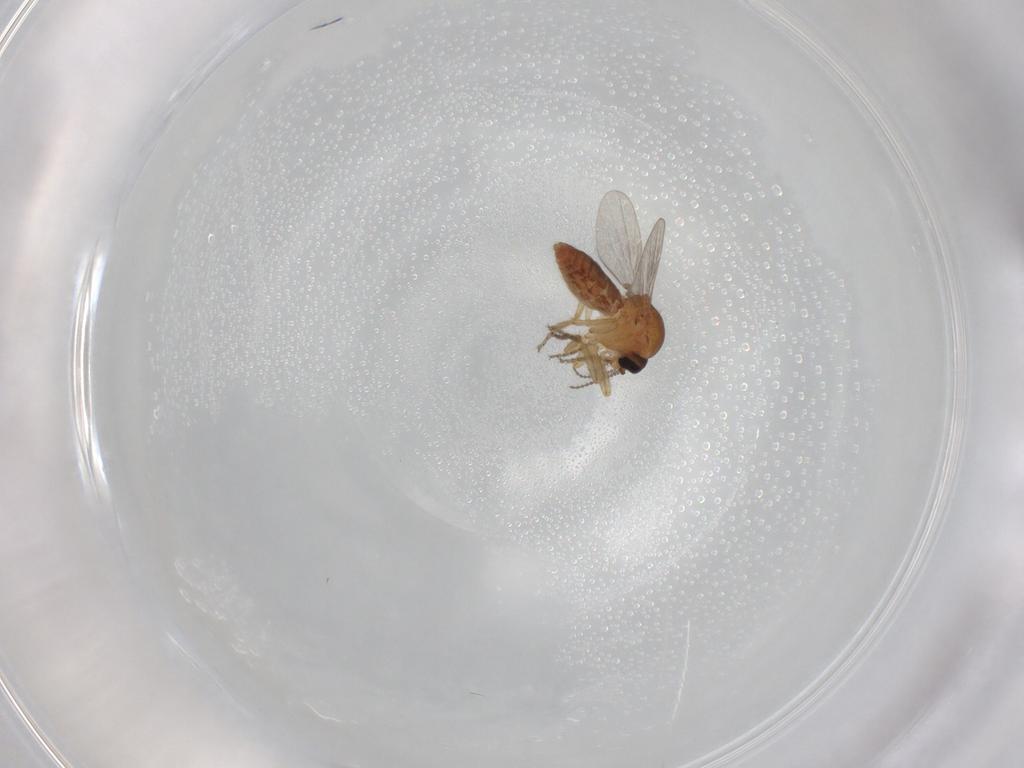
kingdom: Animalia
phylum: Arthropoda
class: Insecta
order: Diptera
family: Ceratopogonidae
